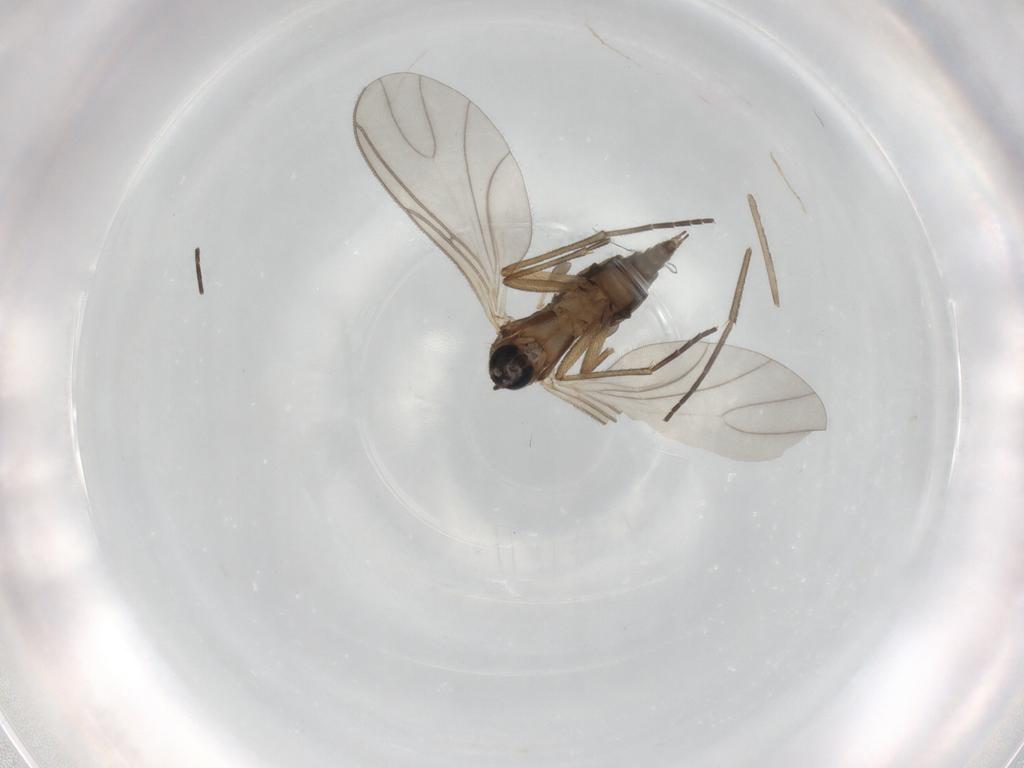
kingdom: Animalia
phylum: Arthropoda
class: Insecta
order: Diptera
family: Sciaridae
